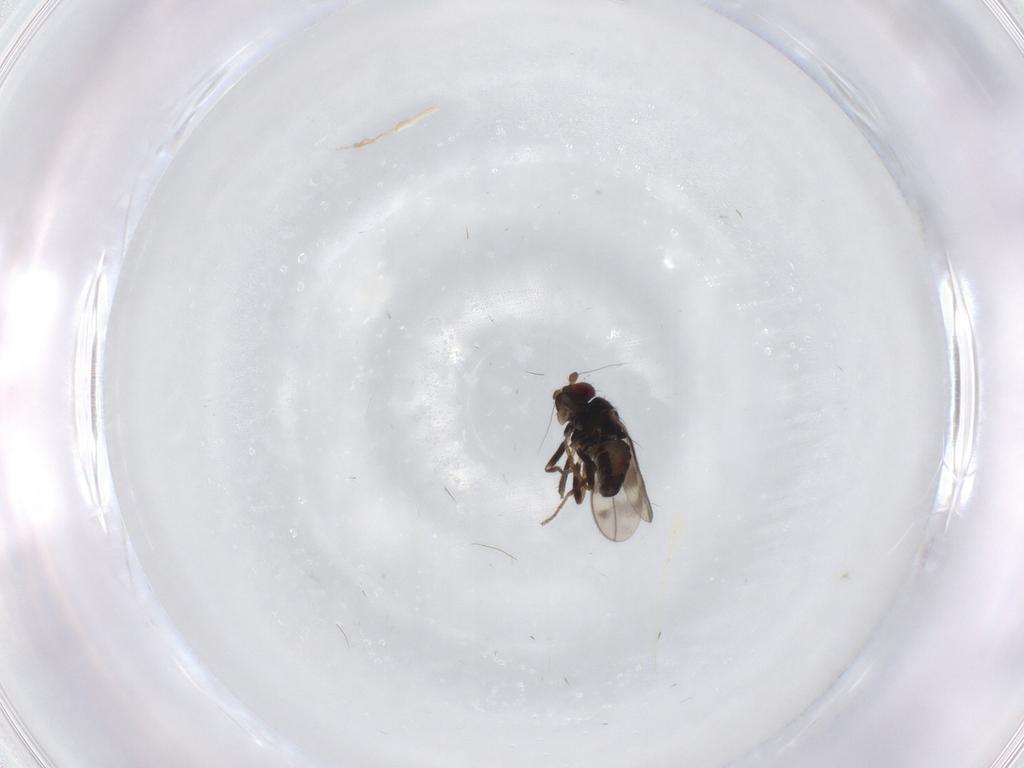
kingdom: Animalia
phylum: Arthropoda
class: Insecta
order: Diptera
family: Sphaeroceridae
